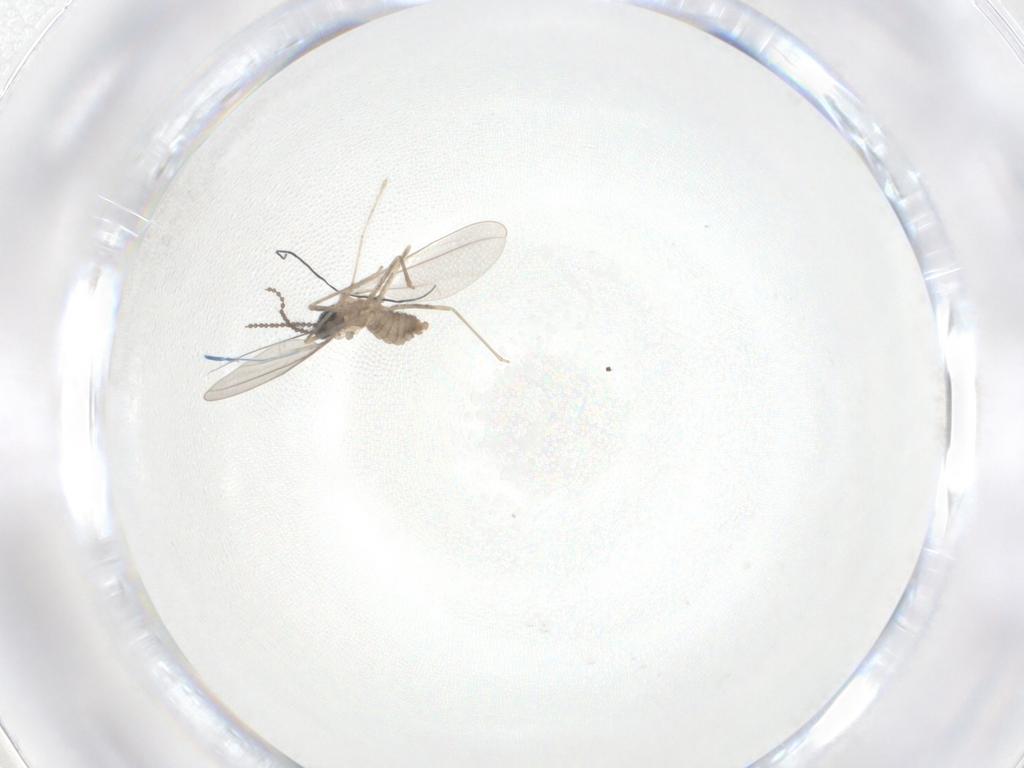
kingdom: Animalia
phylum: Arthropoda
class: Insecta
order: Diptera
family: Cecidomyiidae
